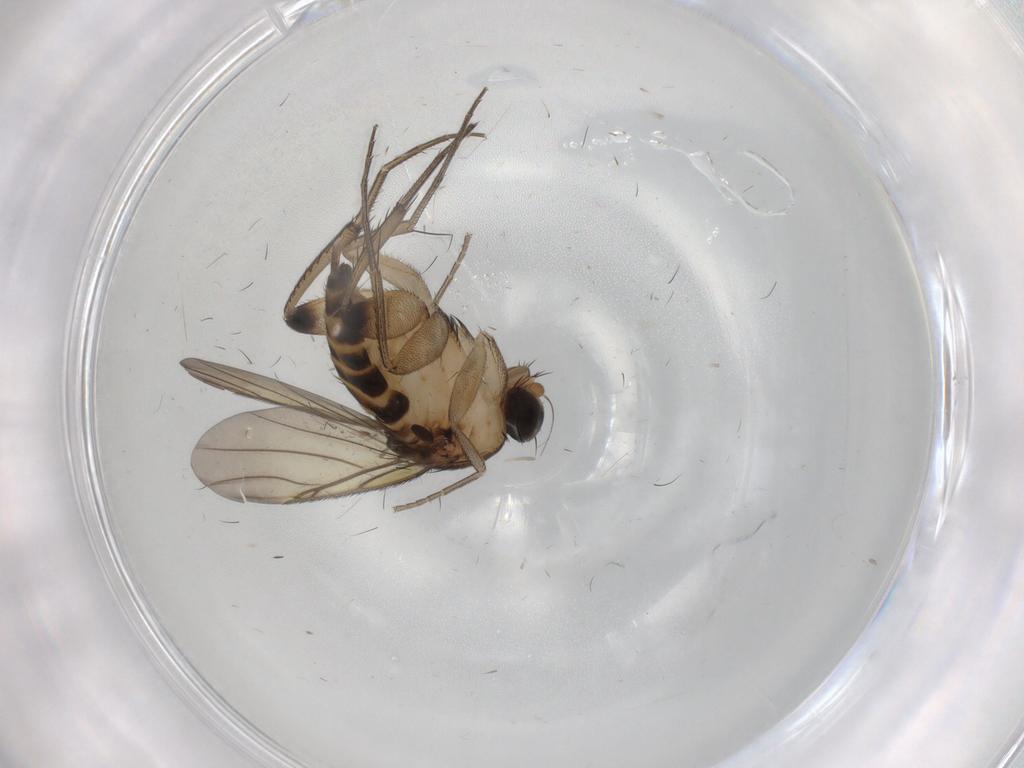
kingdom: Animalia
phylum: Arthropoda
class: Insecta
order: Diptera
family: Phoridae
